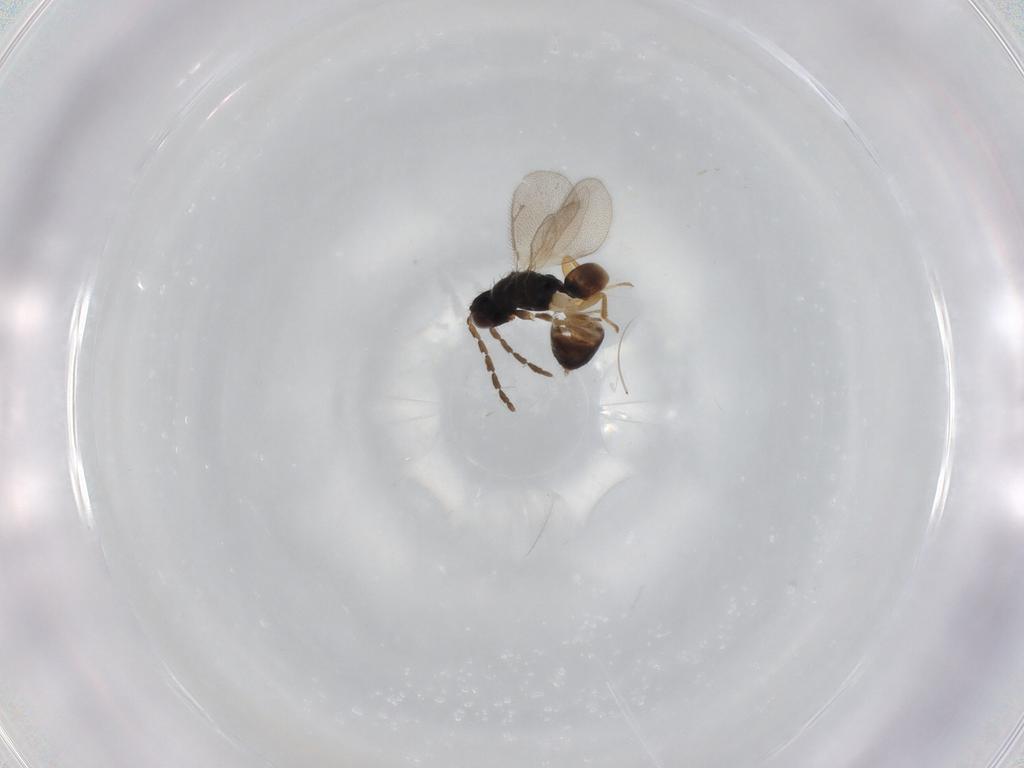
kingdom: Animalia
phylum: Arthropoda
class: Insecta
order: Hymenoptera
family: Eulophidae
